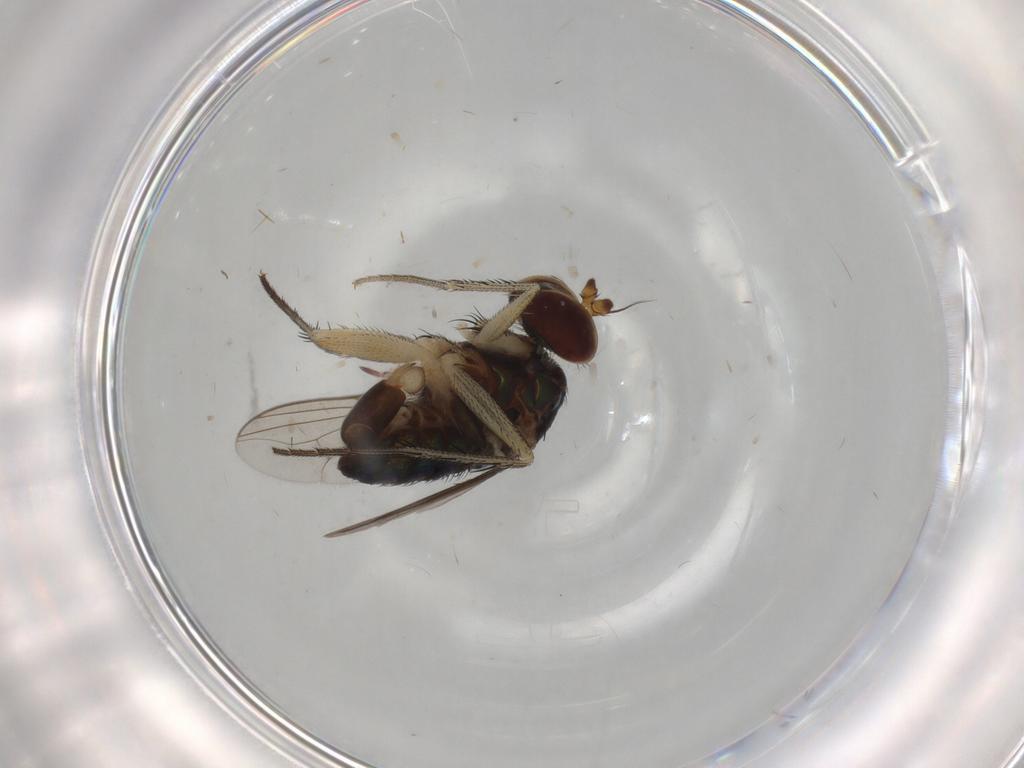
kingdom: Animalia
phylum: Arthropoda
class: Insecta
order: Diptera
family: Dolichopodidae
